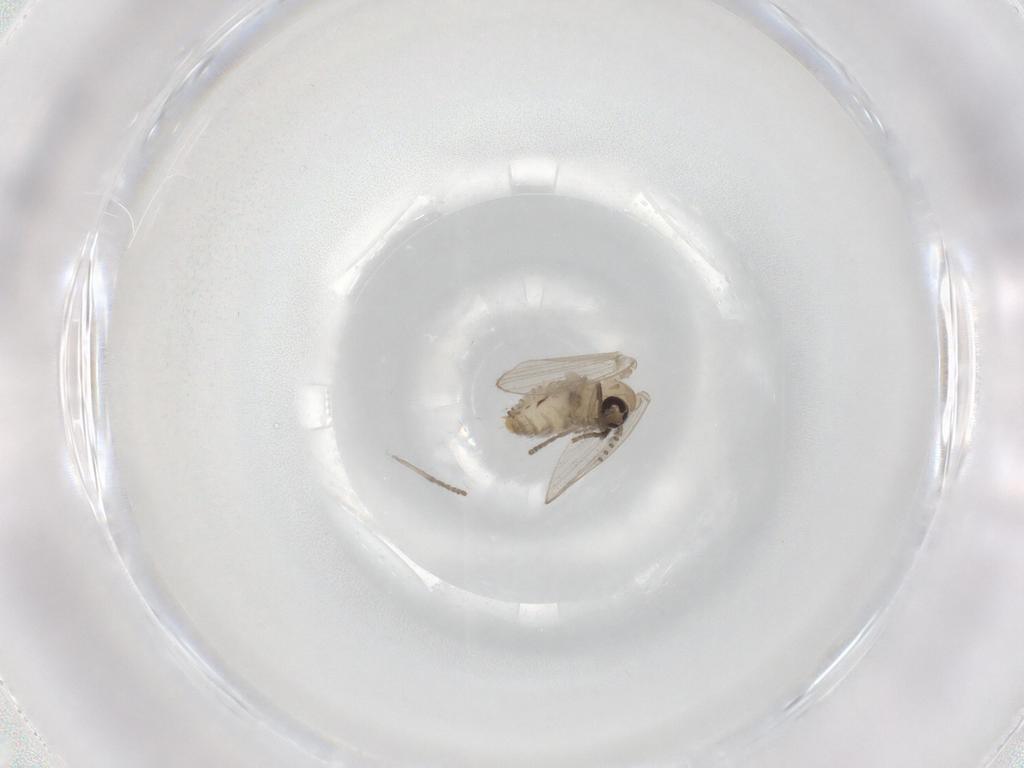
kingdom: Animalia
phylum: Arthropoda
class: Insecta
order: Diptera
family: Psychodidae
